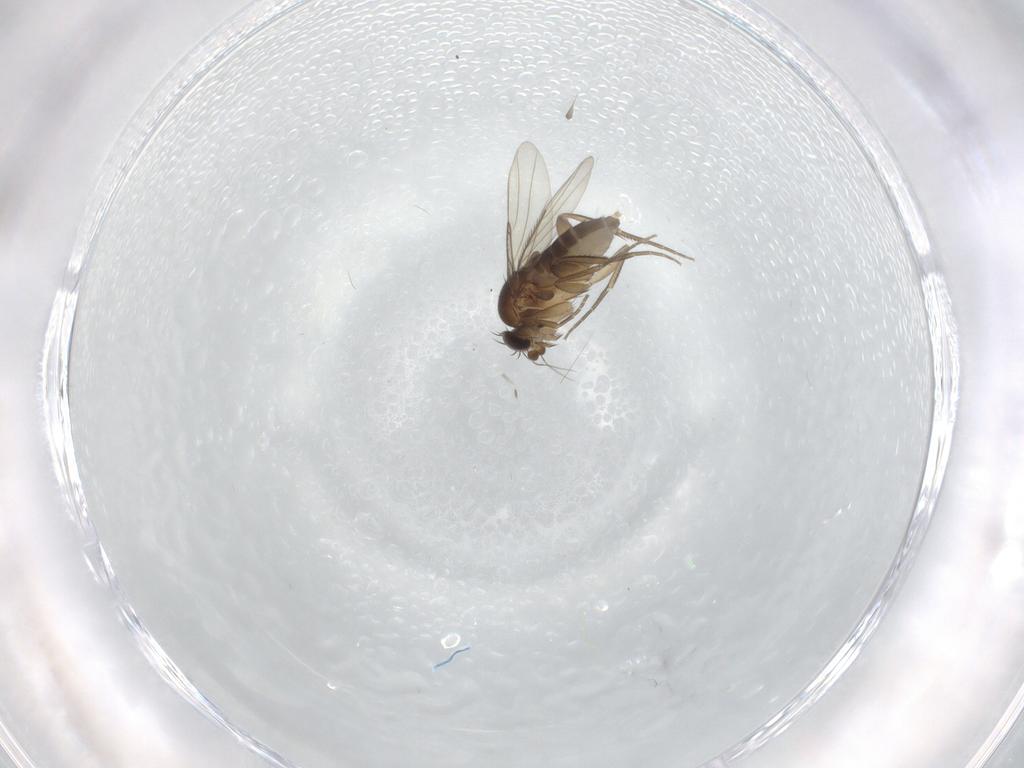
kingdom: Animalia
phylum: Arthropoda
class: Insecta
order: Diptera
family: Phoridae
